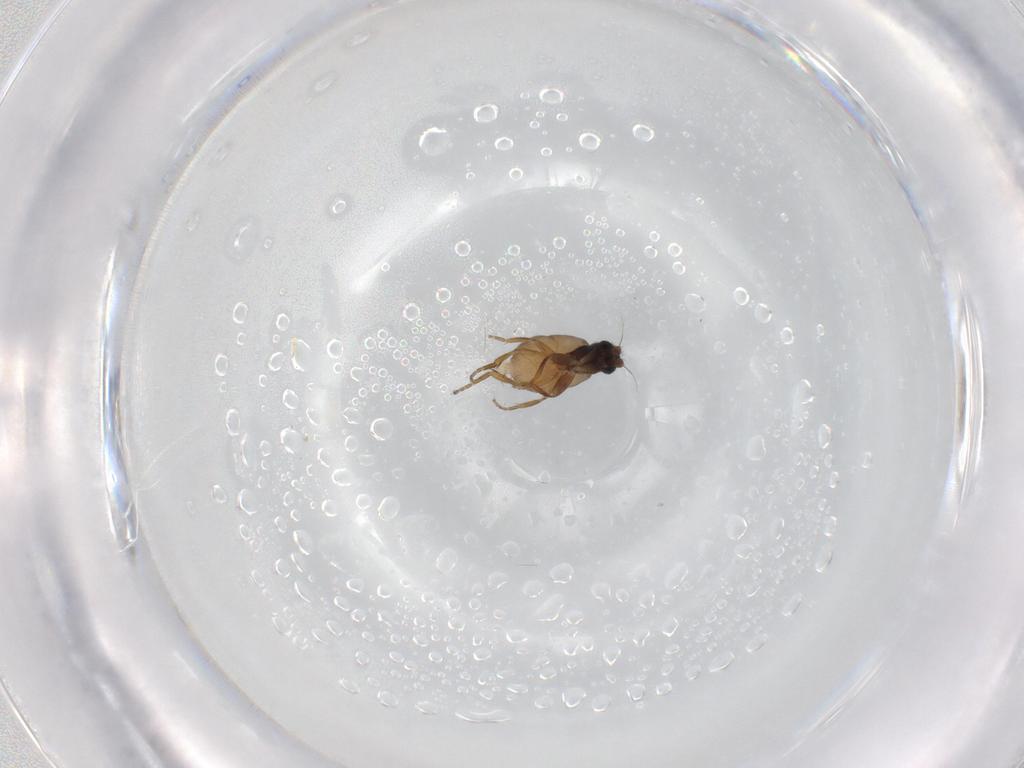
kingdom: Animalia
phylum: Arthropoda
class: Insecta
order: Diptera
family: Phoridae
